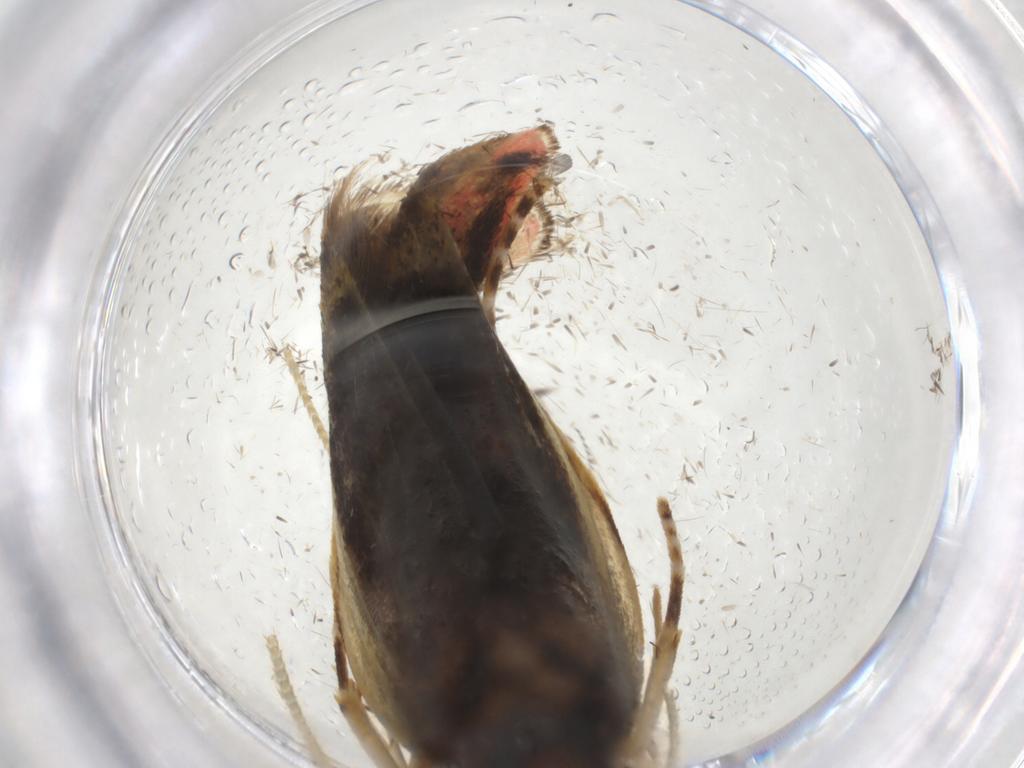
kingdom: Animalia
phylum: Arthropoda
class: Insecta
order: Lepidoptera
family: Depressariidae
